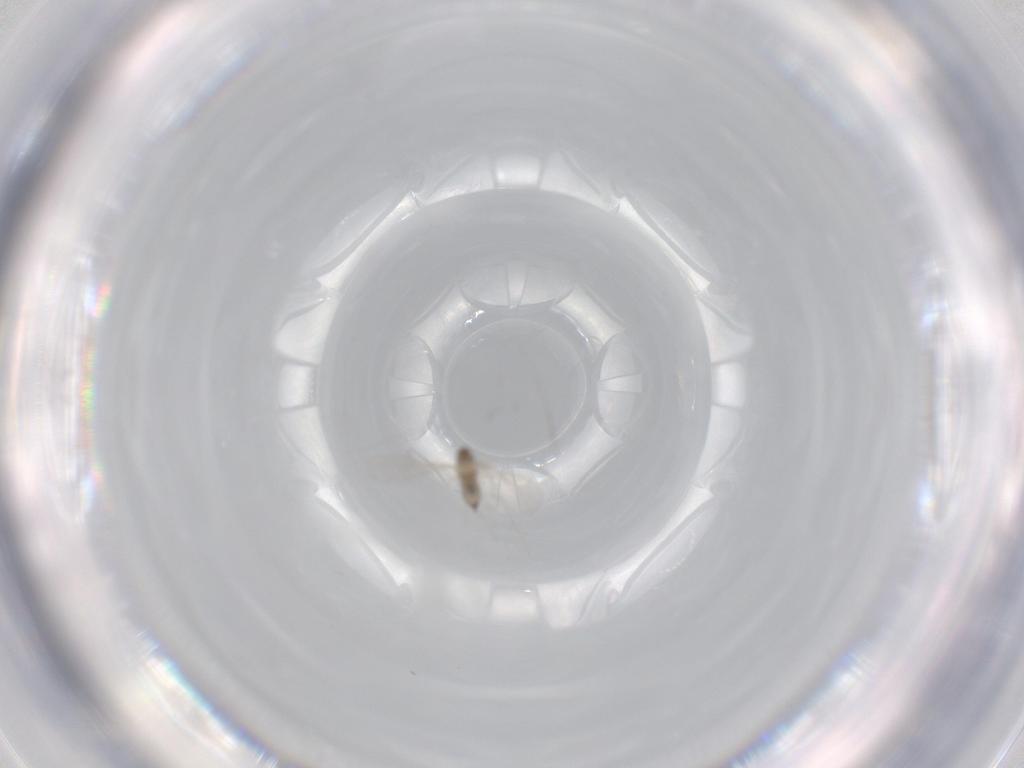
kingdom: Animalia
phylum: Arthropoda
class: Insecta
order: Diptera
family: Cecidomyiidae
